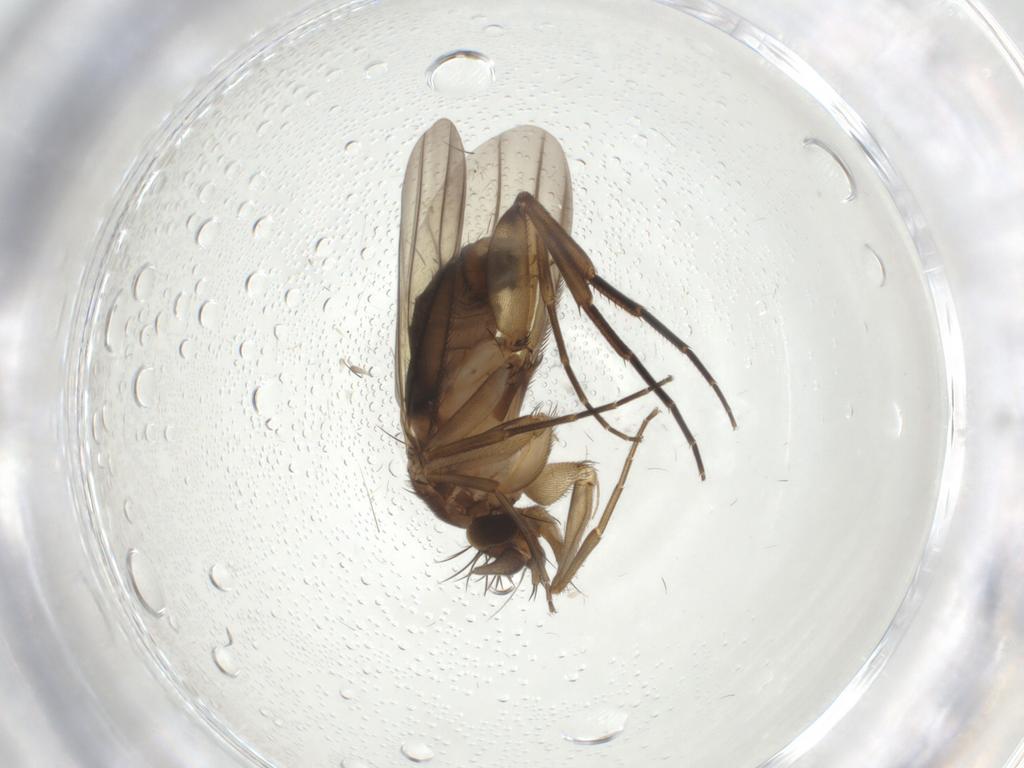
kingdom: Animalia
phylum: Arthropoda
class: Insecta
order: Diptera
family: Phoridae
